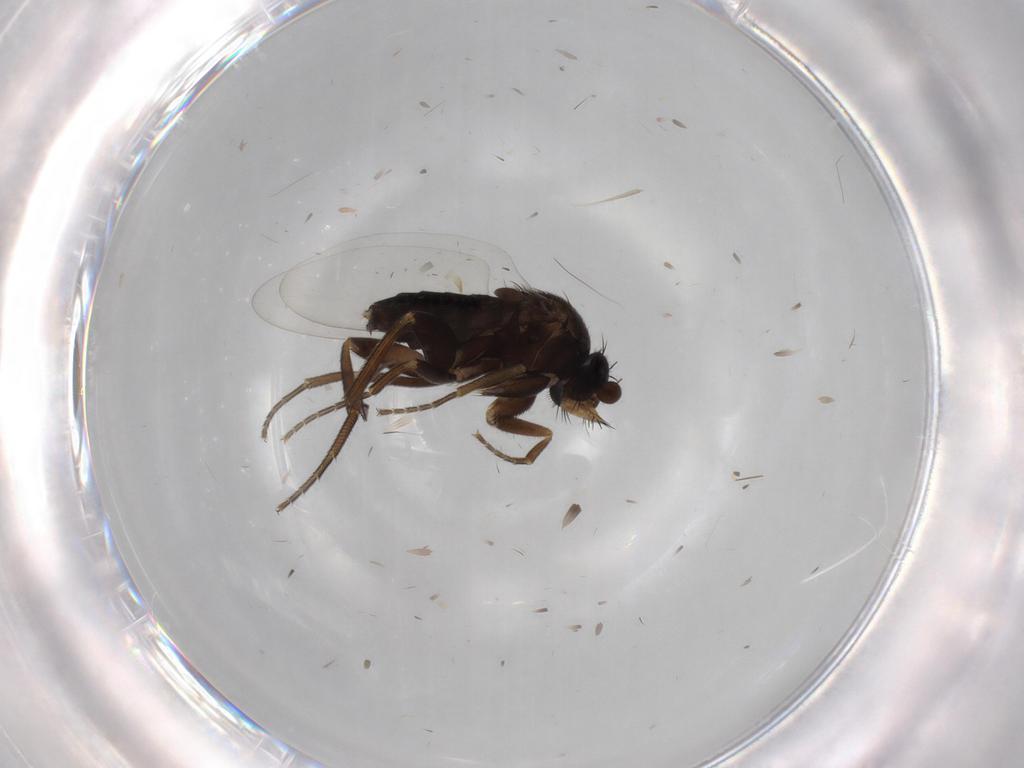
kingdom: Animalia
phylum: Arthropoda
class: Insecta
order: Diptera
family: Phoridae
